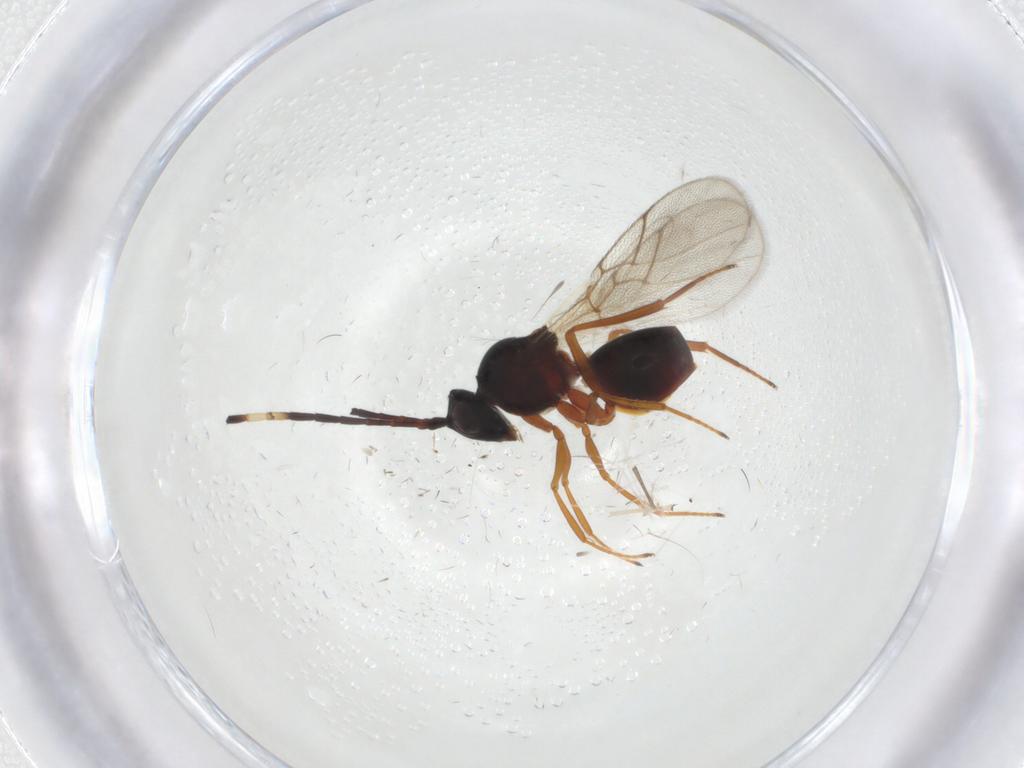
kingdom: Animalia
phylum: Arthropoda
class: Insecta
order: Hymenoptera
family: Figitidae
